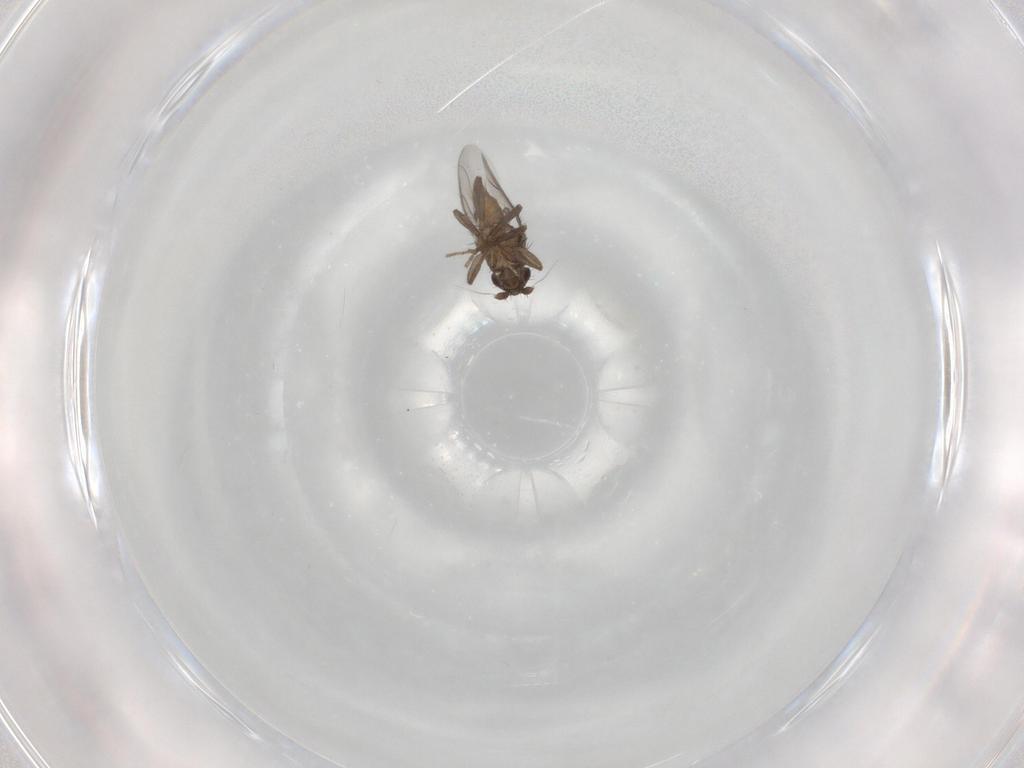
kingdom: Animalia
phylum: Arthropoda
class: Insecta
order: Diptera
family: Sphaeroceridae
